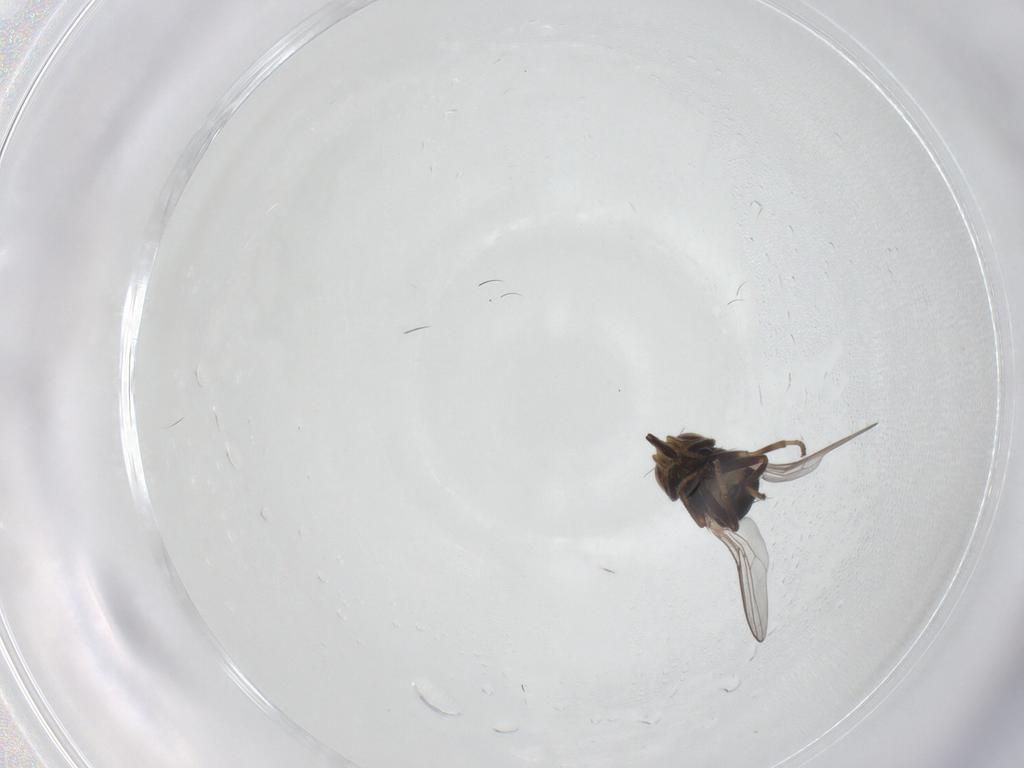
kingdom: Animalia
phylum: Arthropoda
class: Insecta
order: Diptera
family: Chloropidae
